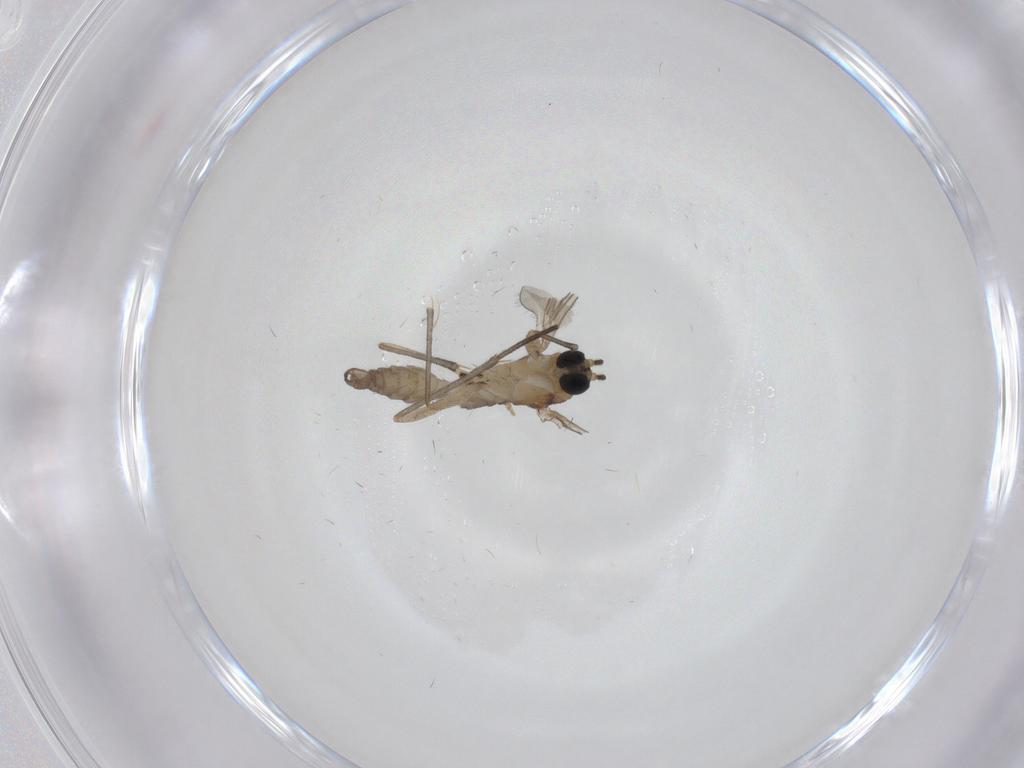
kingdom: Animalia
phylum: Arthropoda
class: Insecta
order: Diptera
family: Sciaridae
